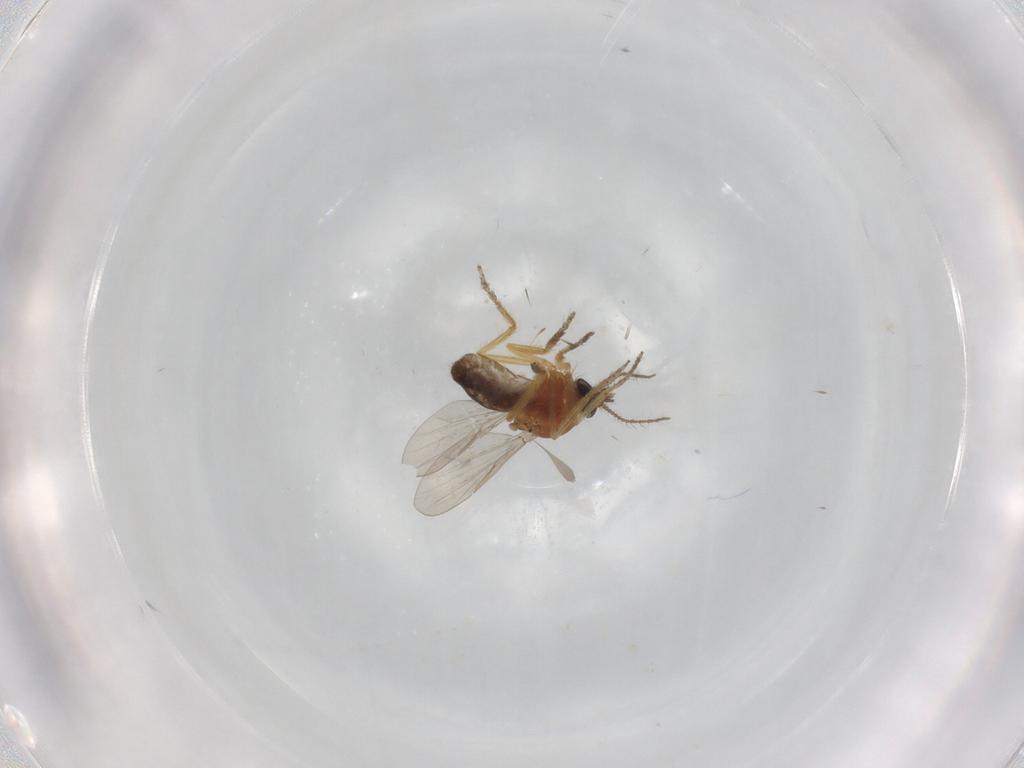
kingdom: Animalia
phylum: Arthropoda
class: Insecta
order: Diptera
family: Ceratopogonidae
